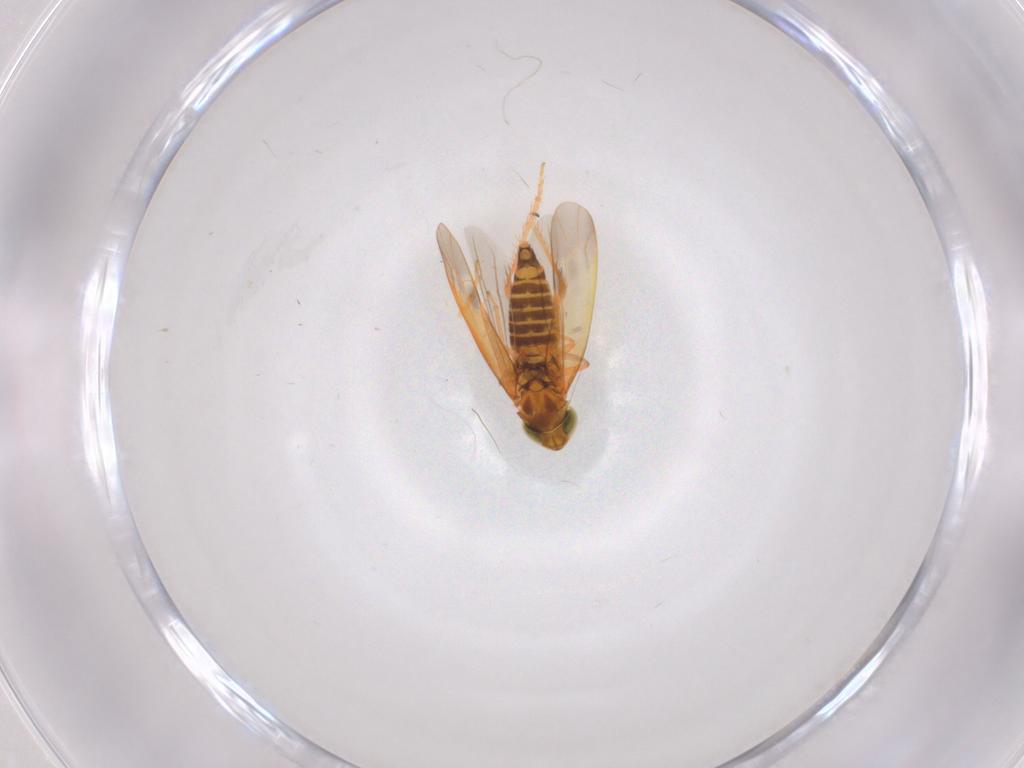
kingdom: Animalia
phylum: Arthropoda
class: Insecta
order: Hemiptera
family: Cicadellidae
